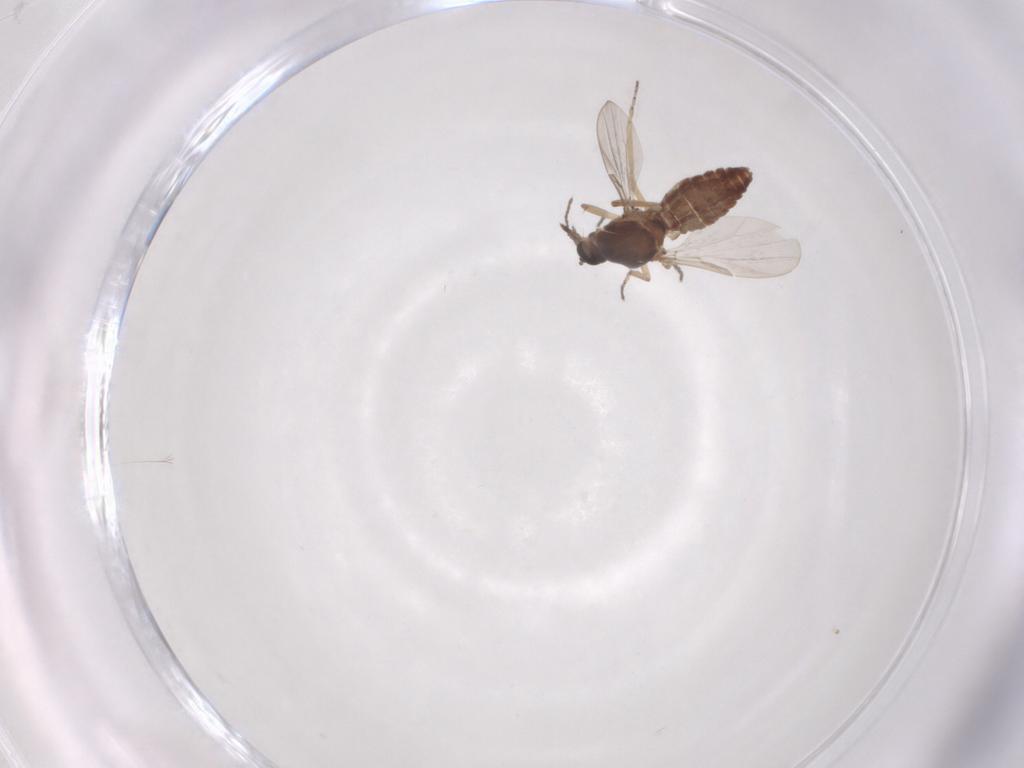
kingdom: Animalia
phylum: Arthropoda
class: Insecta
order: Diptera
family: Ceratopogonidae
